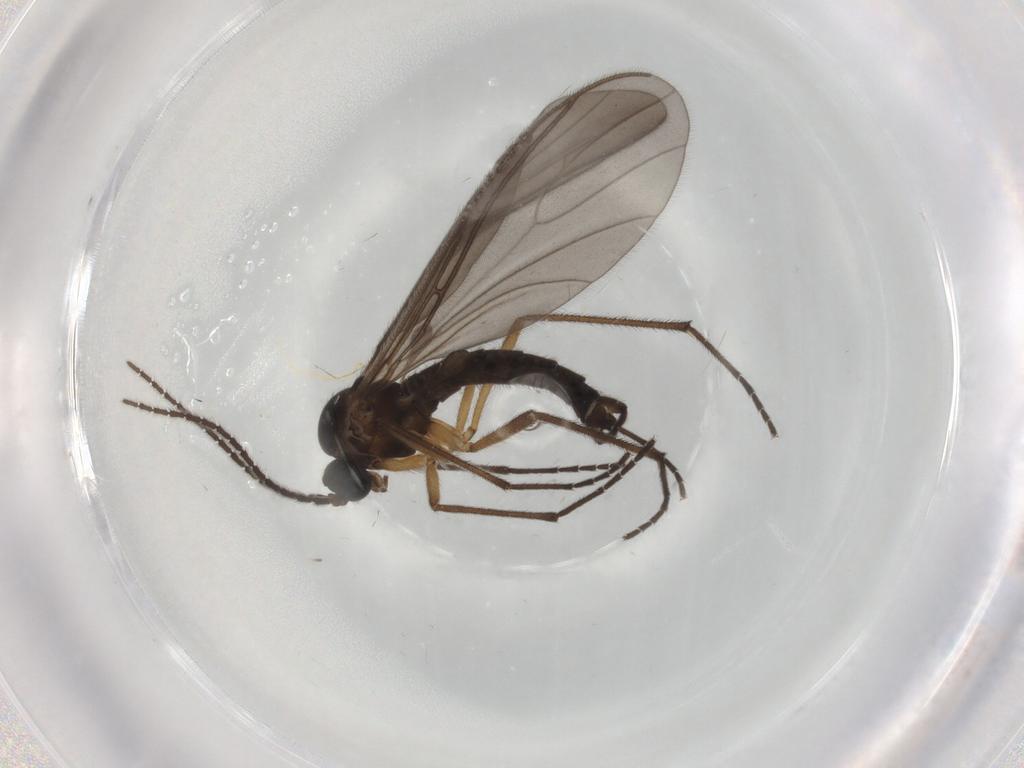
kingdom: Animalia
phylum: Arthropoda
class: Insecta
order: Diptera
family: Sciaridae
